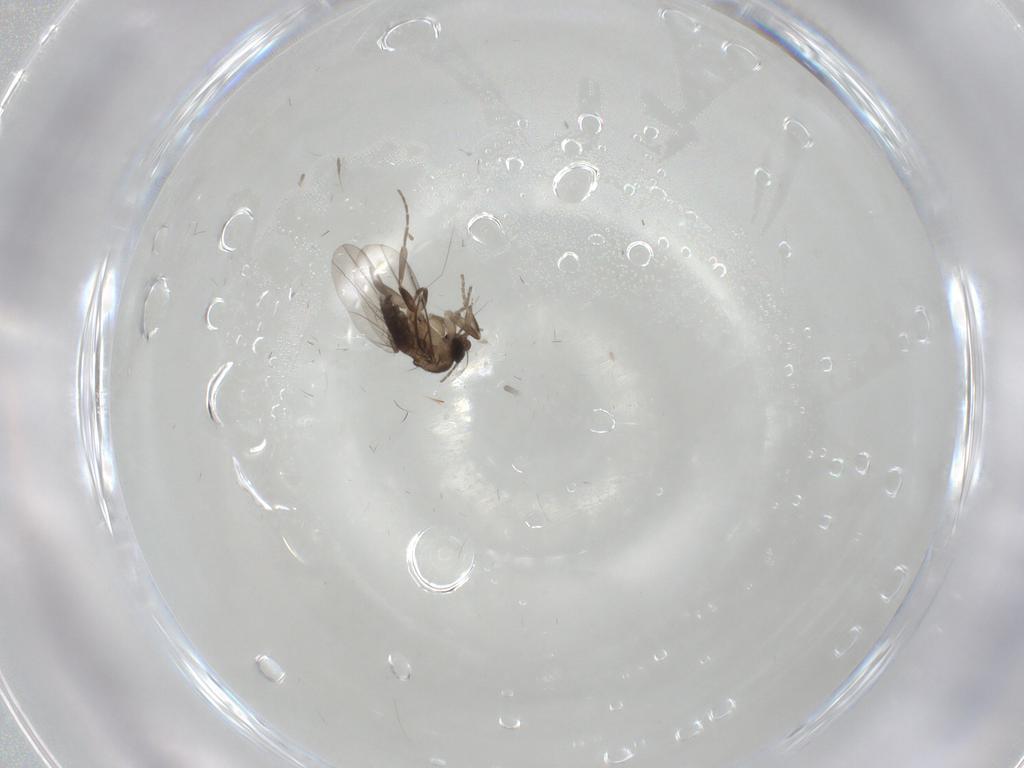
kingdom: Animalia
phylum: Arthropoda
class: Insecta
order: Diptera
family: Phoridae
